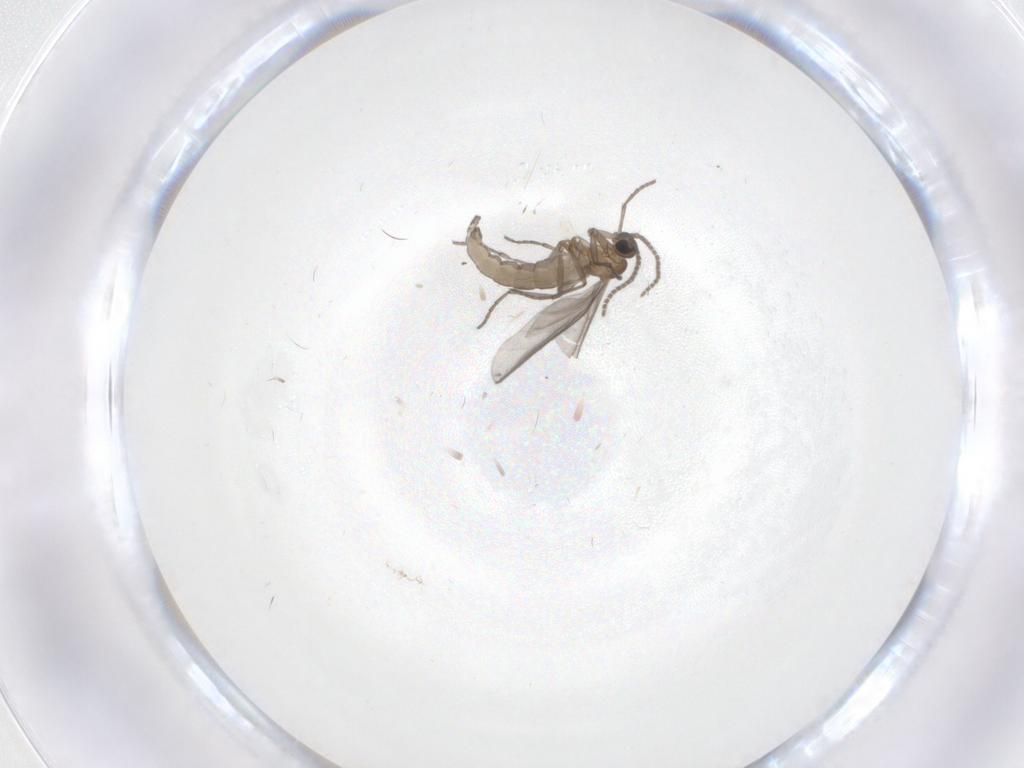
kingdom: Animalia
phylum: Arthropoda
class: Insecta
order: Diptera
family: Sciaridae
